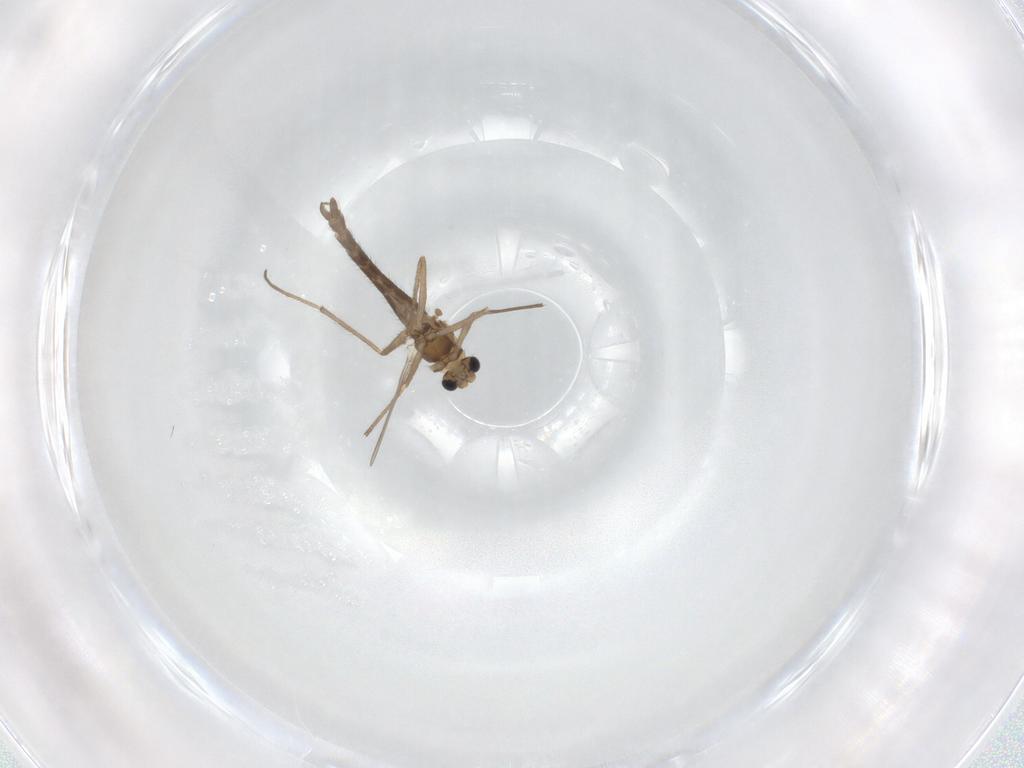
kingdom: Animalia
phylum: Arthropoda
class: Insecta
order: Diptera
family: Chironomidae
